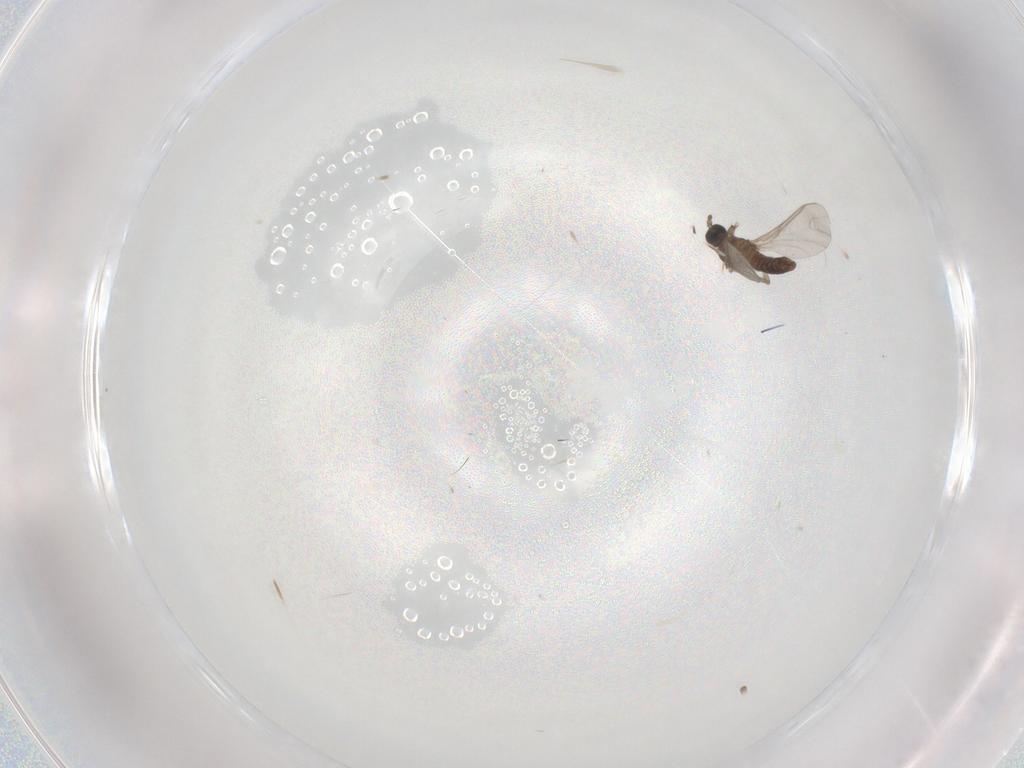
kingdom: Animalia
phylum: Arthropoda
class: Insecta
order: Diptera
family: Sciaridae
